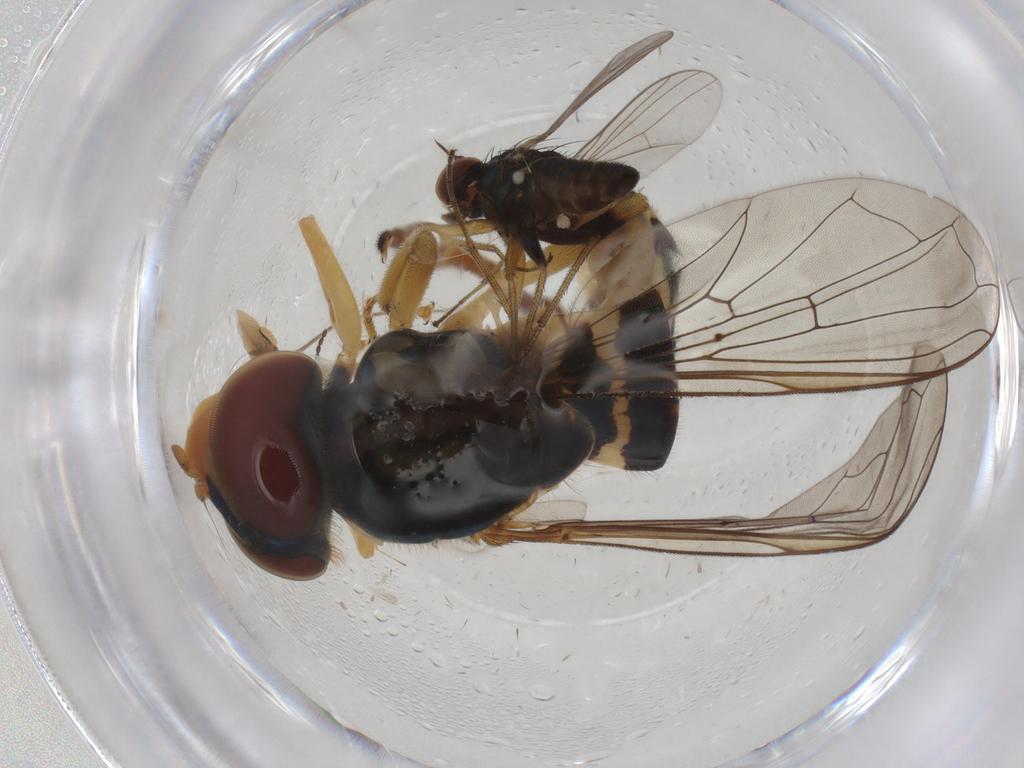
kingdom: Animalia
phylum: Arthropoda
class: Insecta
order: Diptera
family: Syrphidae
